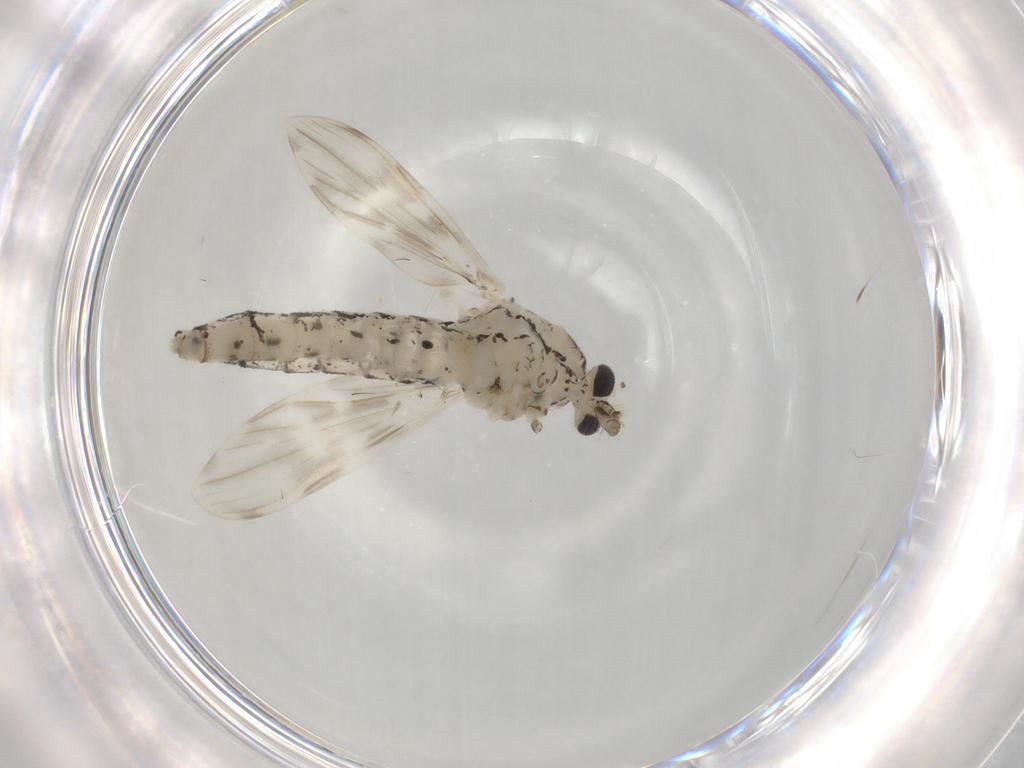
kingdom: Animalia
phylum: Arthropoda
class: Insecta
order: Diptera
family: Chaoboridae
